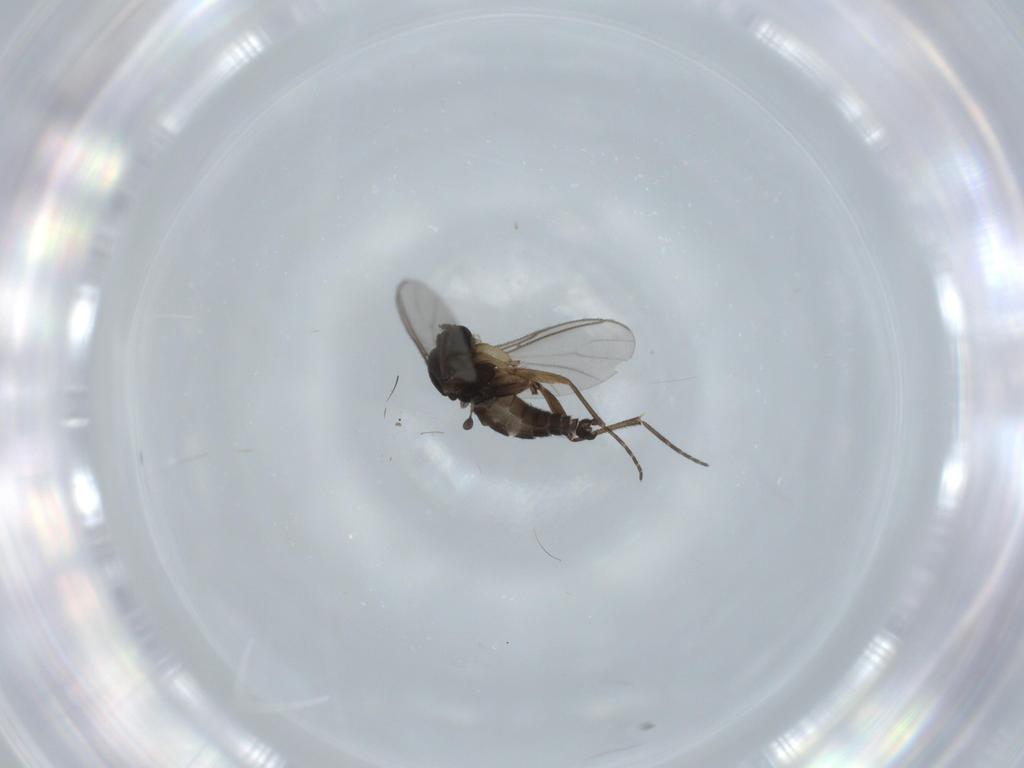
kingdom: Animalia
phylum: Arthropoda
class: Insecta
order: Diptera
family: Sciaridae
